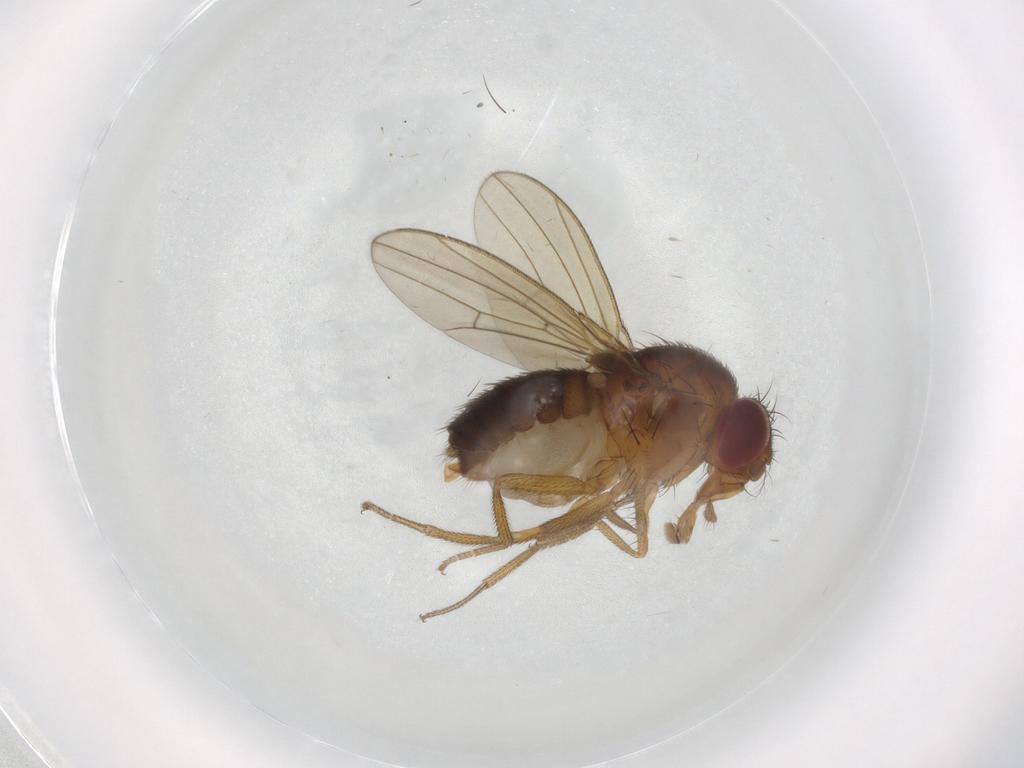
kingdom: Animalia
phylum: Arthropoda
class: Insecta
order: Diptera
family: Drosophilidae
